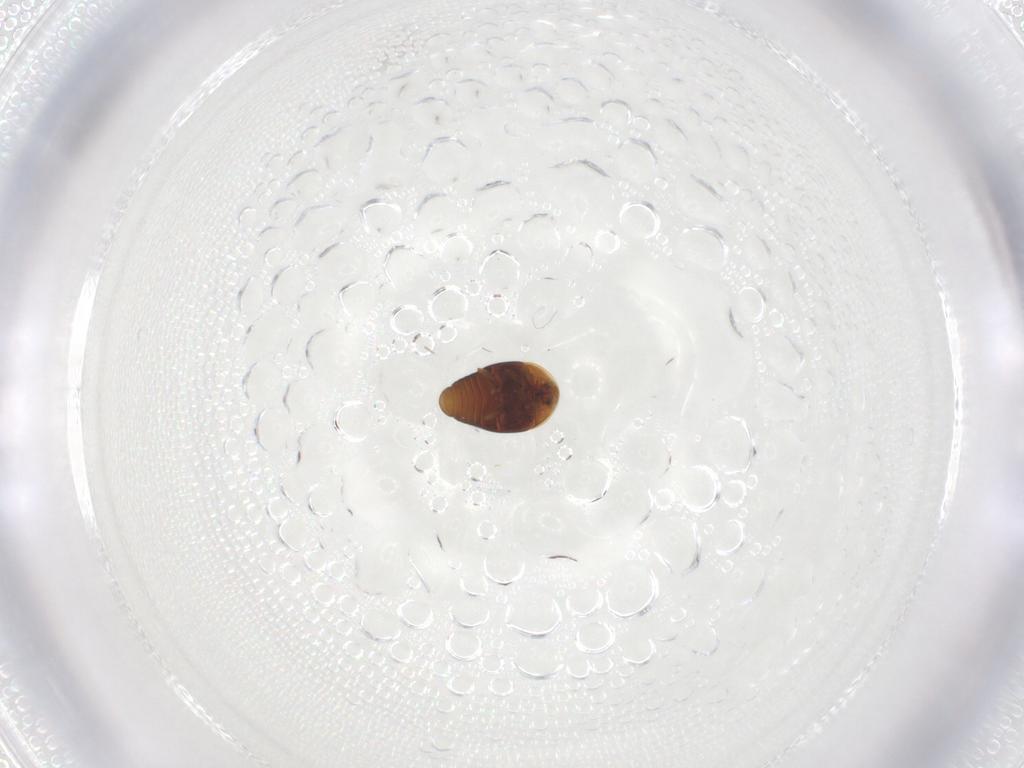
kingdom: Animalia
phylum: Arthropoda
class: Insecta
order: Coleoptera
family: Corylophidae
